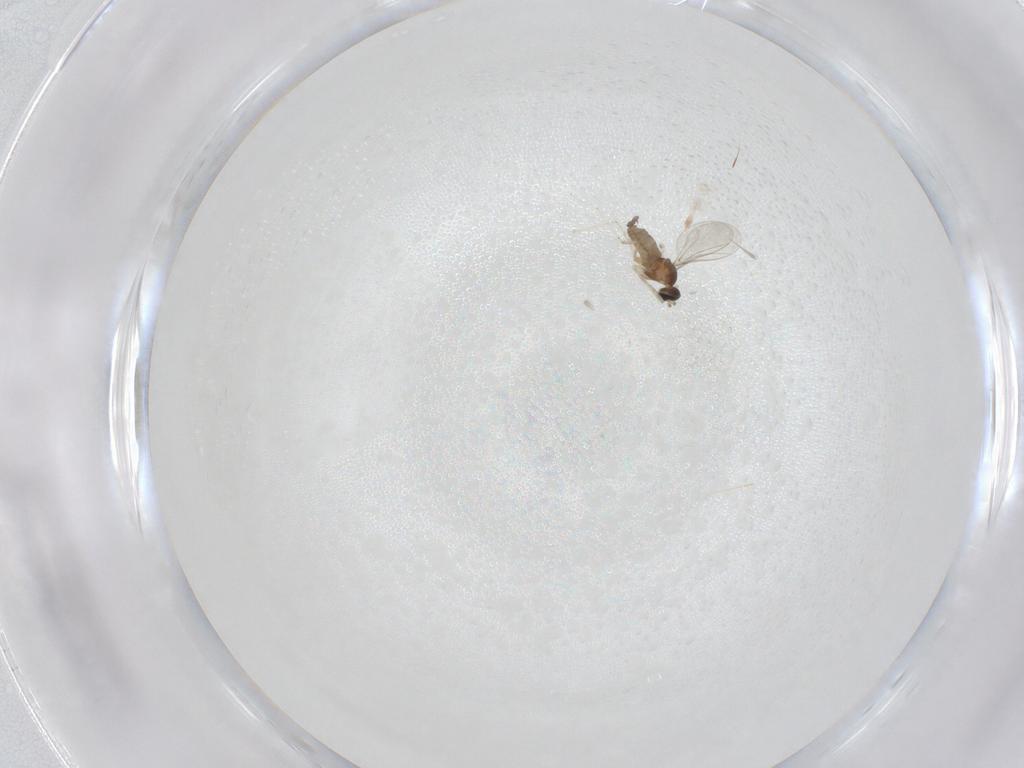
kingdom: Animalia
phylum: Arthropoda
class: Insecta
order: Diptera
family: Cecidomyiidae
